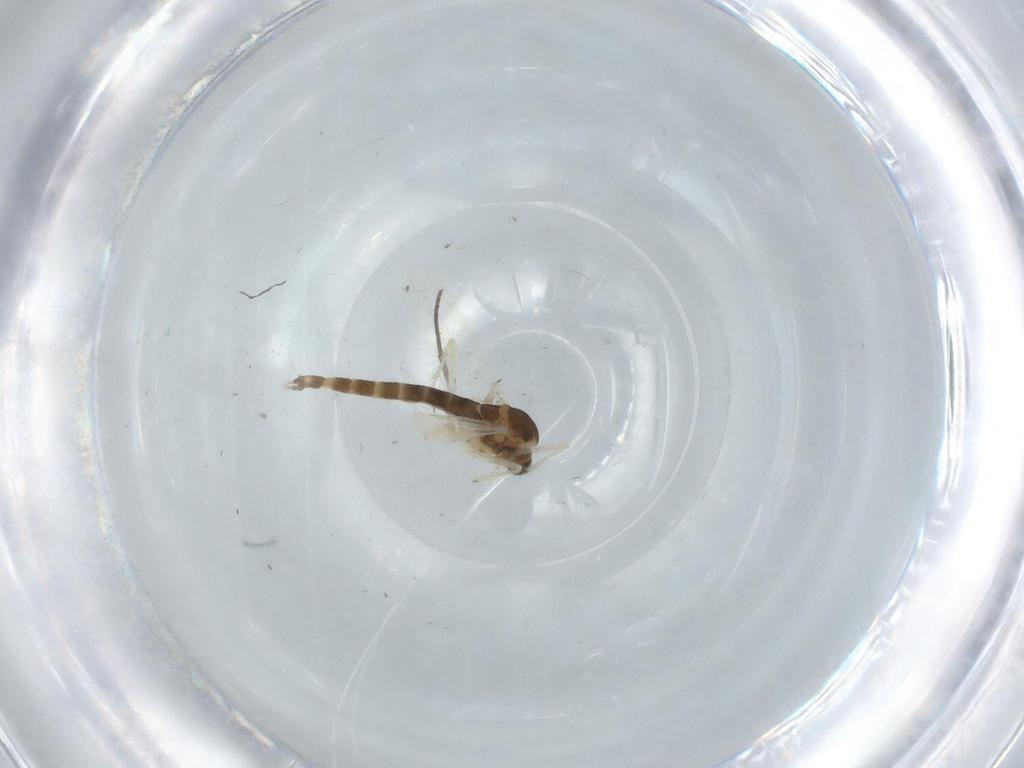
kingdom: Animalia
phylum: Arthropoda
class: Insecta
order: Diptera
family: Chironomidae
